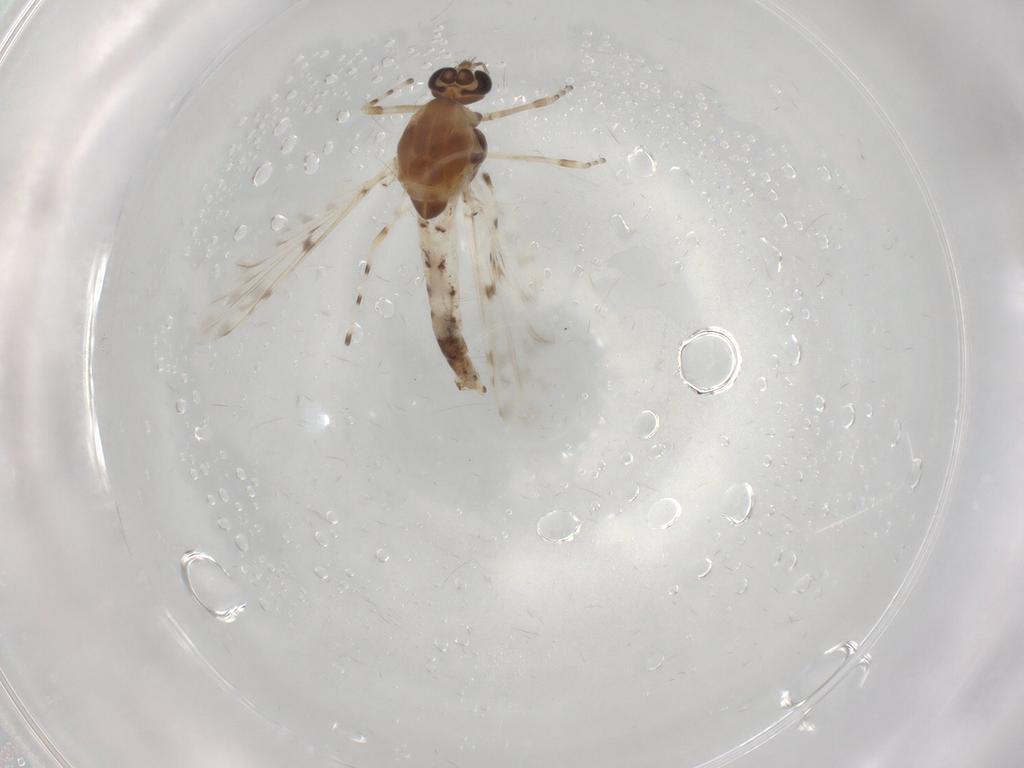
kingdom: Animalia
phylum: Arthropoda
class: Insecta
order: Diptera
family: Chironomidae
